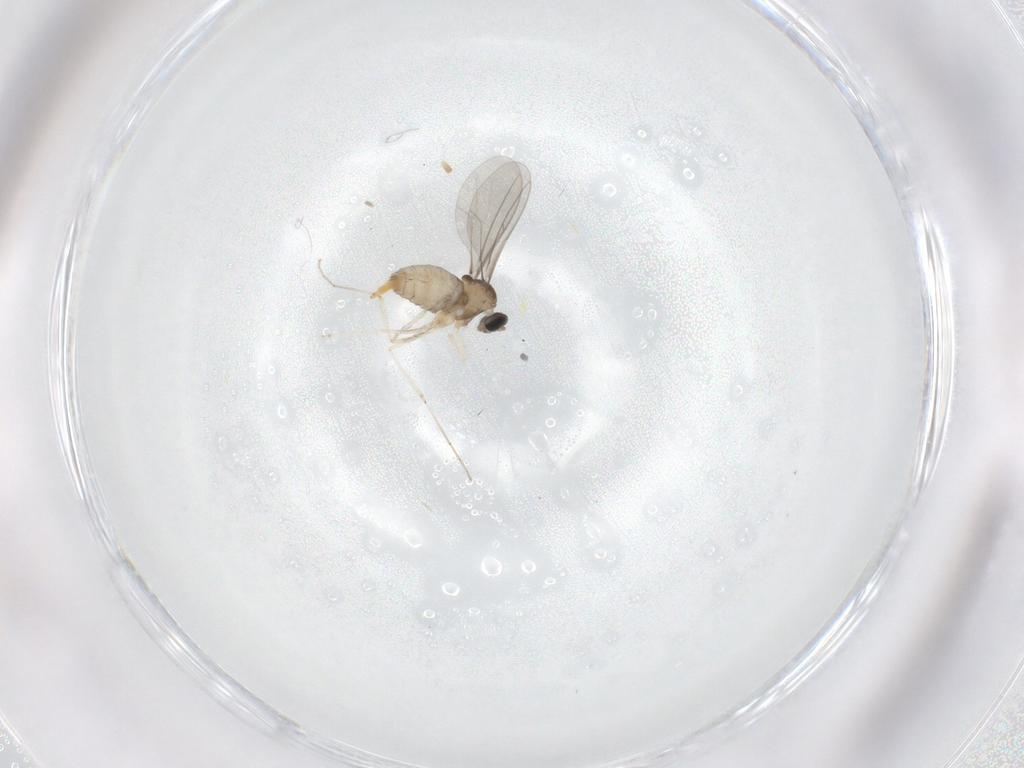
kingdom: Animalia
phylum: Arthropoda
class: Insecta
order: Diptera
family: Cecidomyiidae
